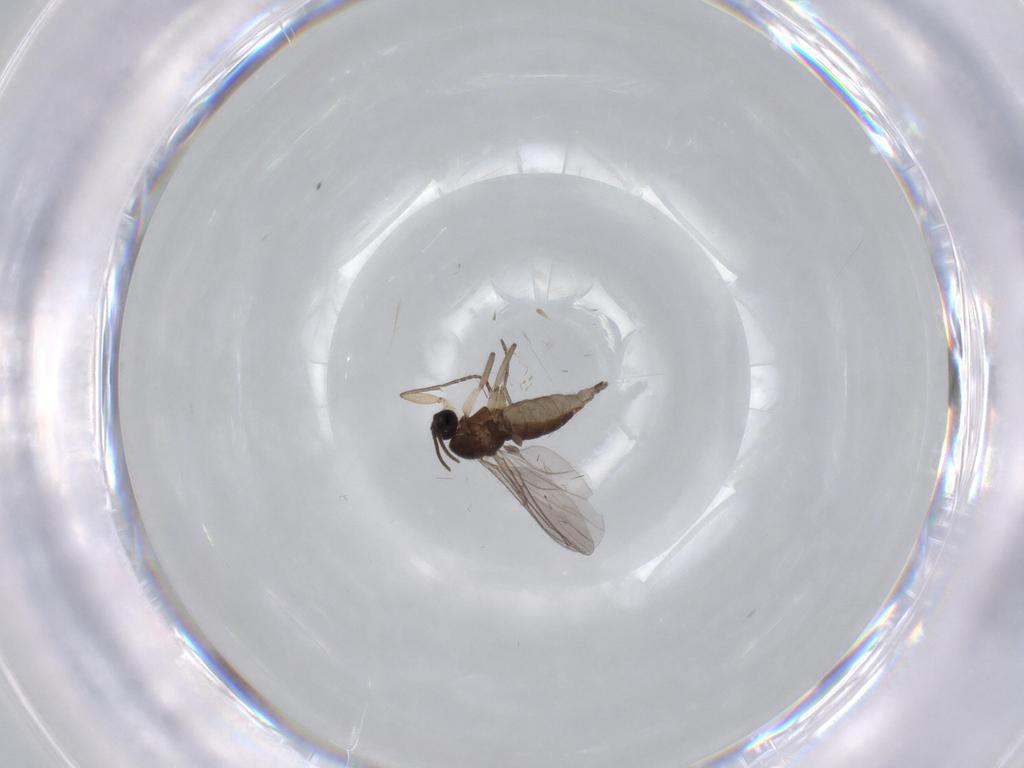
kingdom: Animalia
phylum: Arthropoda
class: Insecta
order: Diptera
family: Sciaridae
